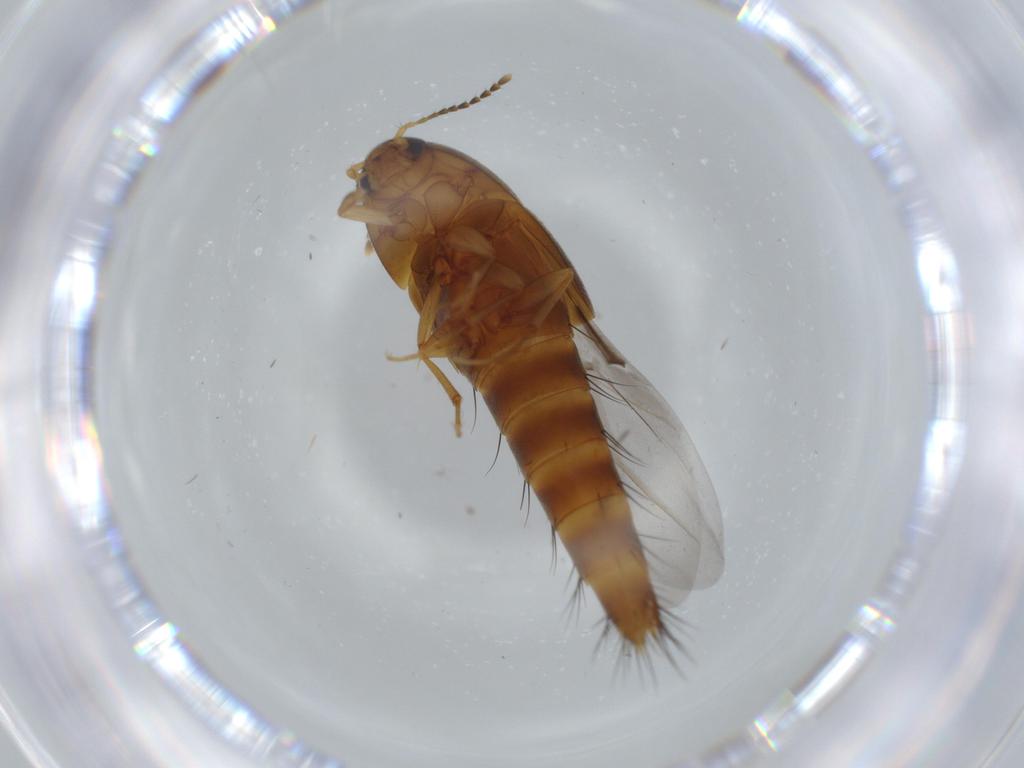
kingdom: Animalia
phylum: Arthropoda
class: Insecta
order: Coleoptera
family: Staphylinidae
